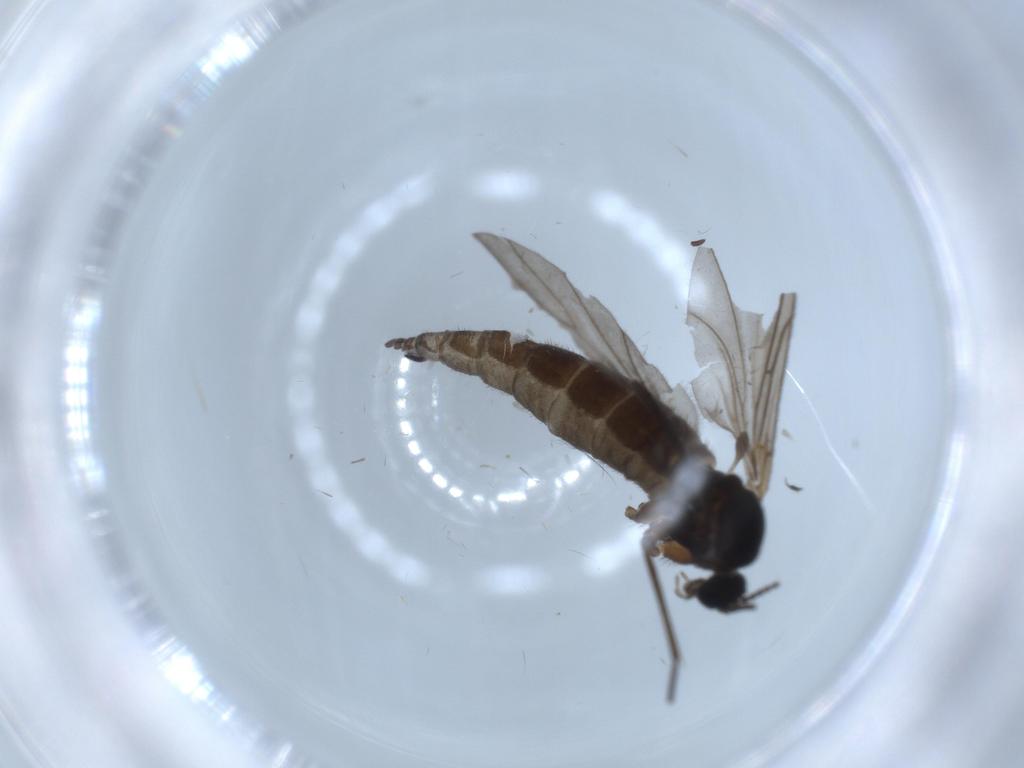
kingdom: Animalia
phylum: Arthropoda
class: Insecta
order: Diptera
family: Sciaridae
